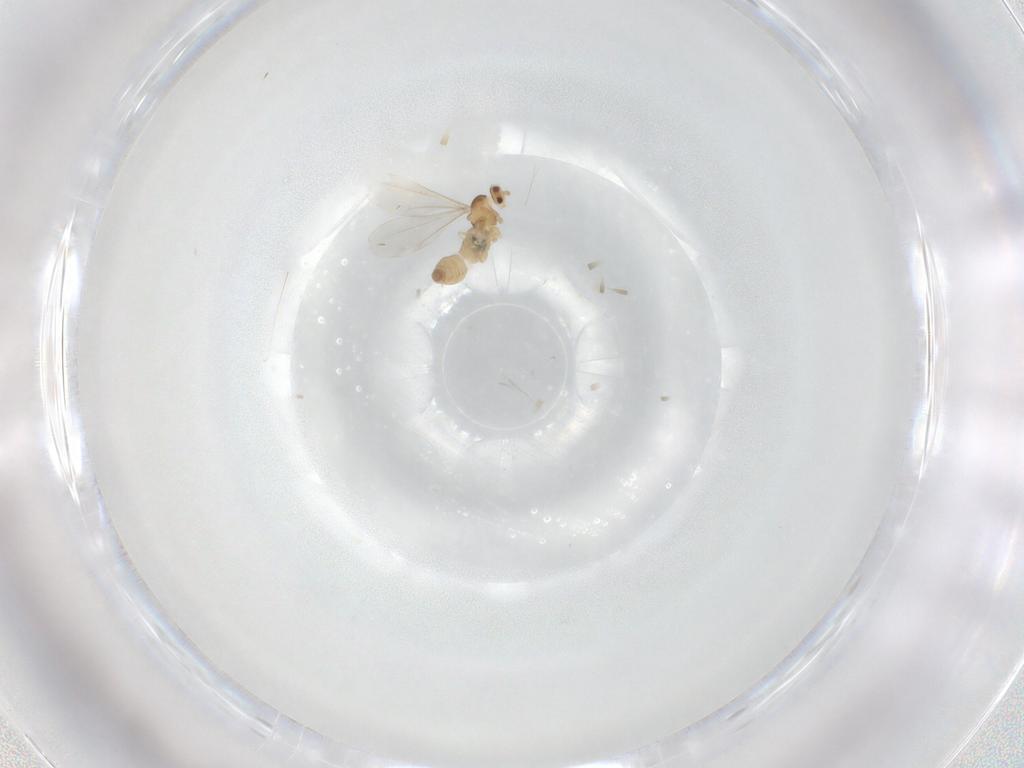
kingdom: Animalia
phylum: Arthropoda
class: Insecta
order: Diptera
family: Cecidomyiidae
